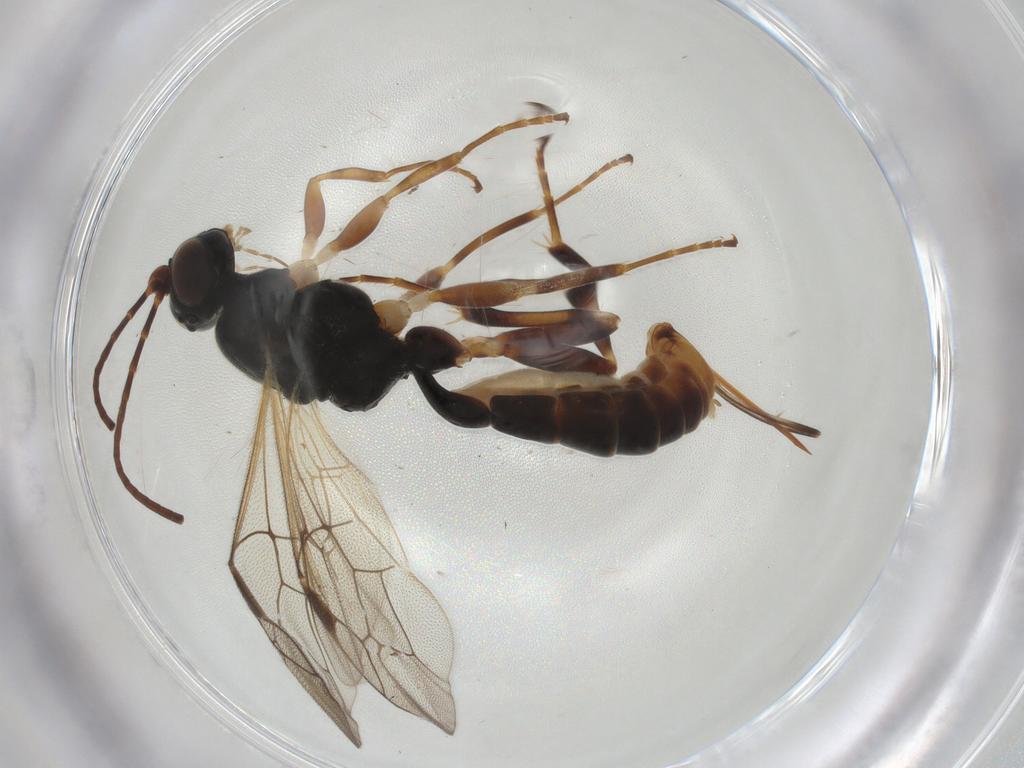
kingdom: Animalia
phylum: Arthropoda
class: Insecta
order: Hymenoptera
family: Ichneumonidae
